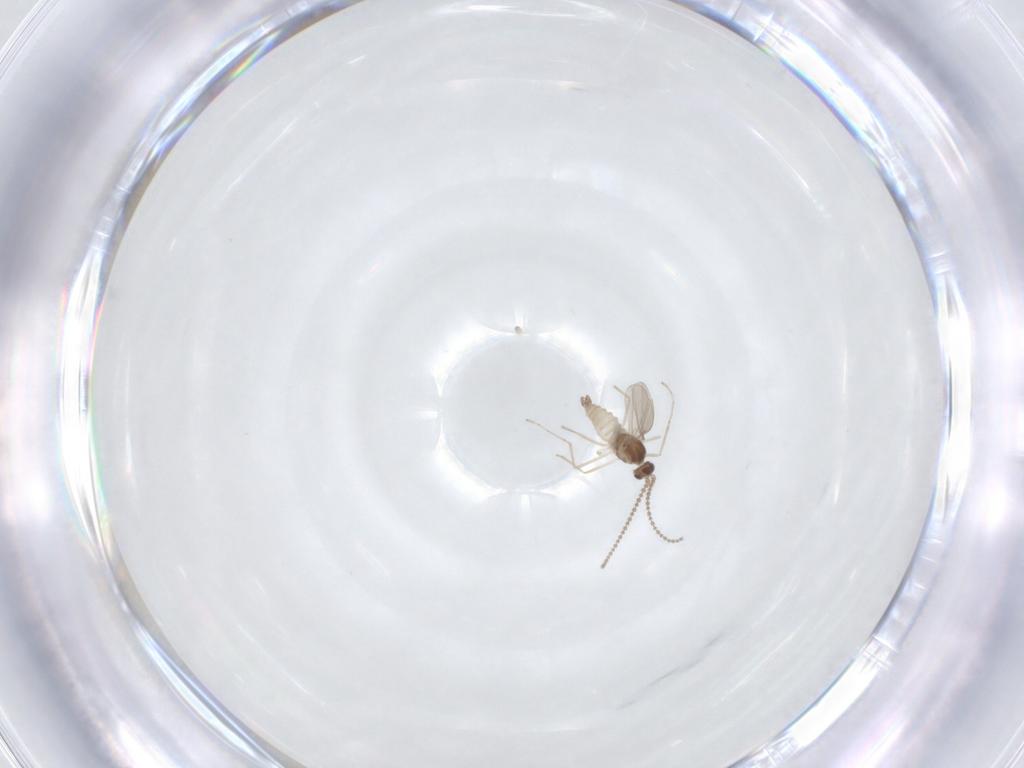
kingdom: Animalia
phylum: Arthropoda
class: Insecta
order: Diptera
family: Cecidomyiidae
